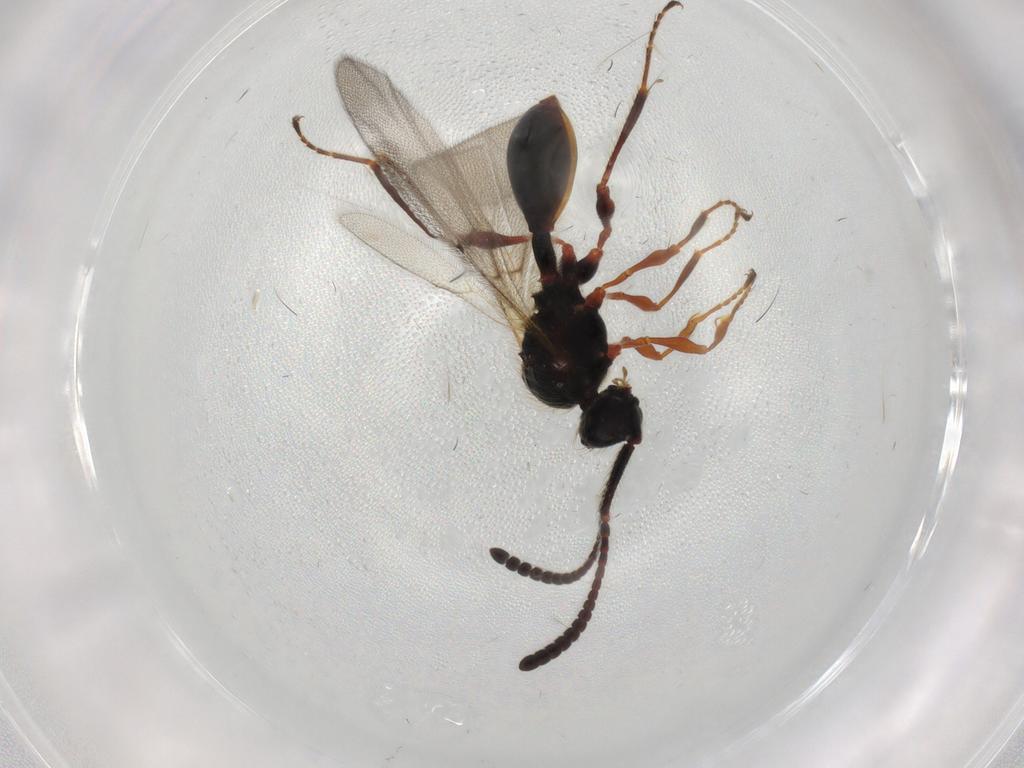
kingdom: Animalia
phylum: Arthropoda
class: Insecta
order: Hymenoptera
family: Diapriidae
